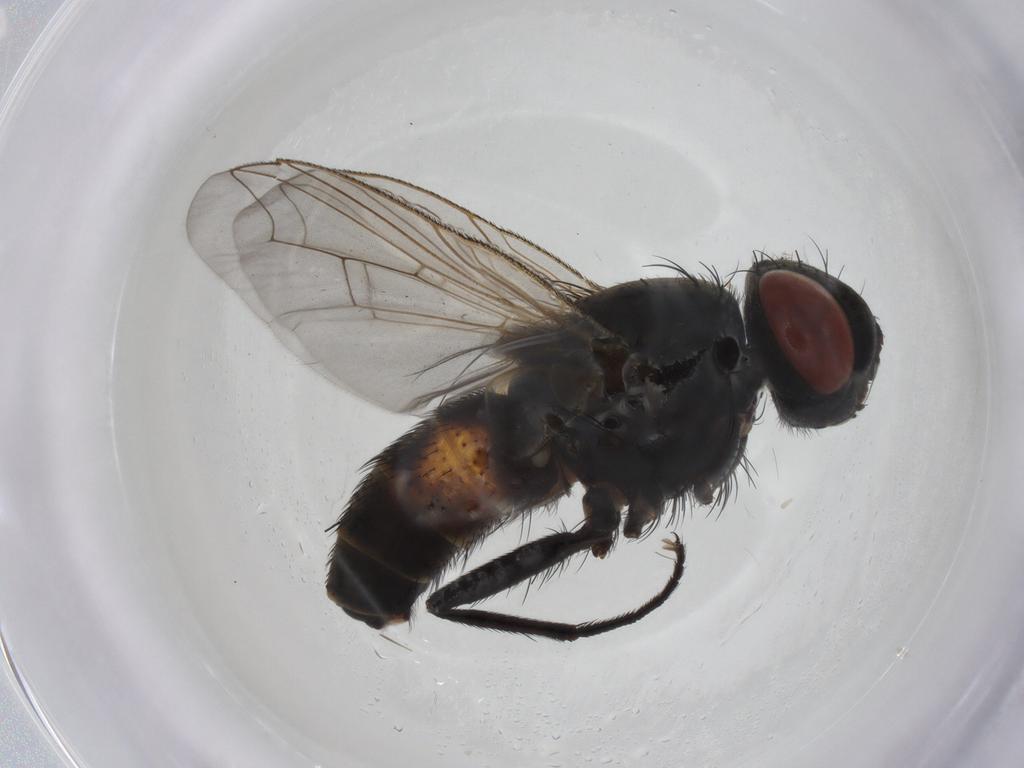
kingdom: Animalia
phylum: Arthropoda
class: Insecta
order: Diptera
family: Sarcophagidae
